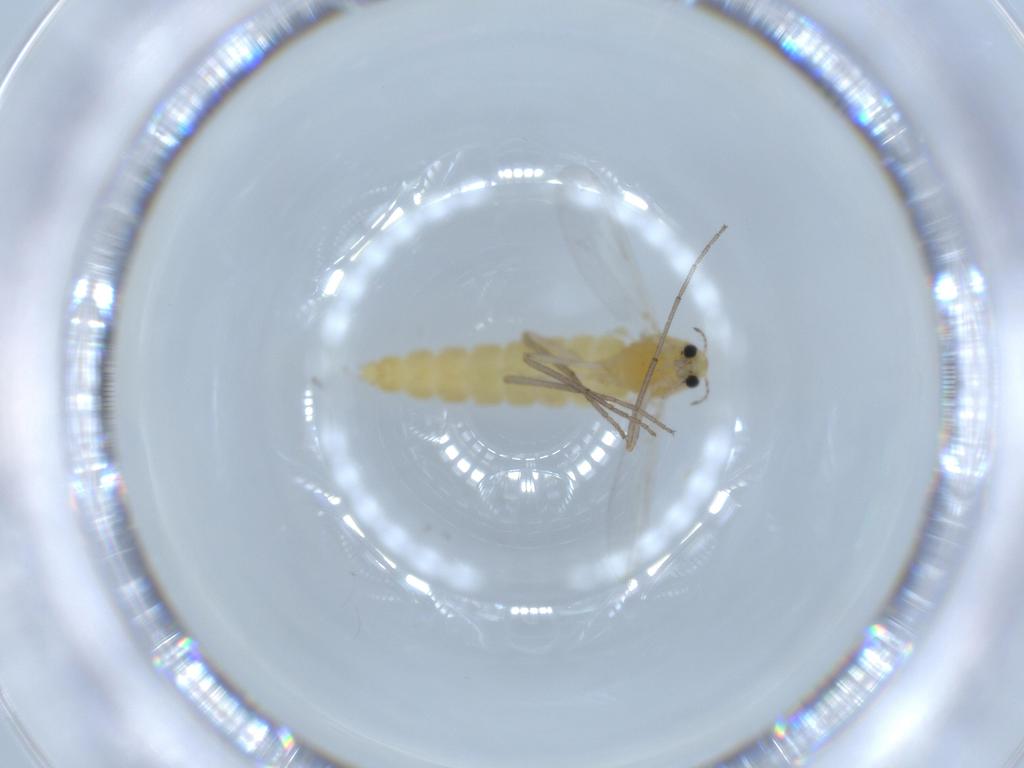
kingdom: Animalia
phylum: Arthropoda
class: Insecta
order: Diptera
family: Chironomidae
